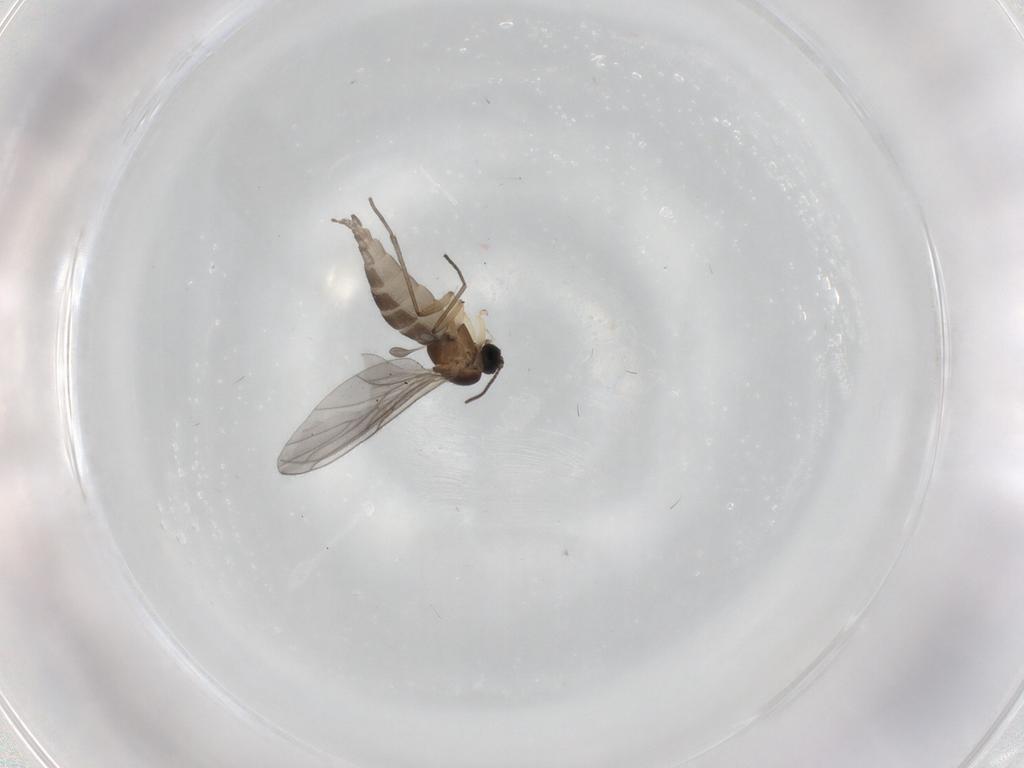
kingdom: Animalia
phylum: Arthropoda
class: Insecta
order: Diptera
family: Sciaridae
